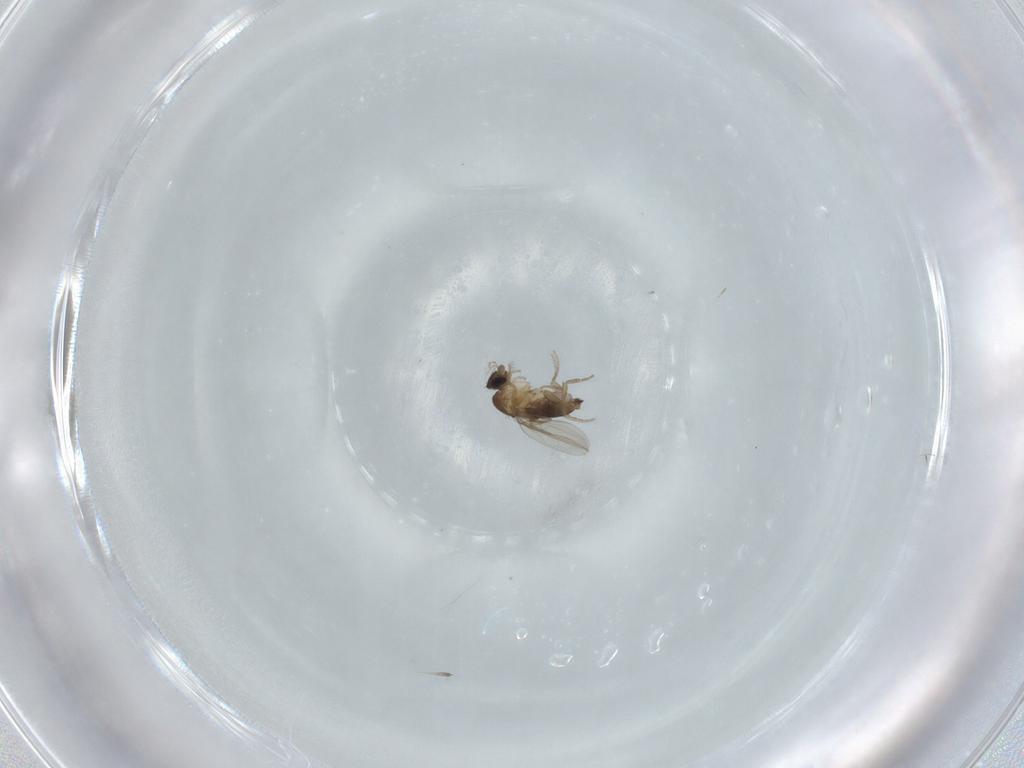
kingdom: Animalia
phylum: Arthropoda
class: Insecta
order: Diptera
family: Phoridae
